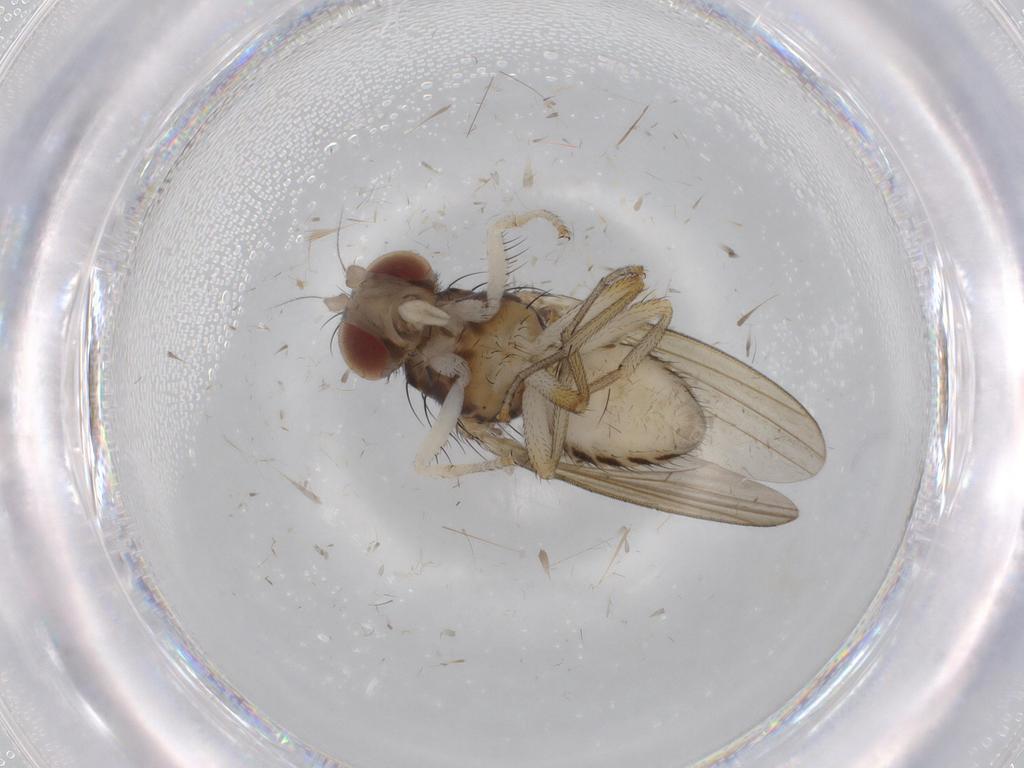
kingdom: Animalia
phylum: Arthropoda
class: Insecta
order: Diptera
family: Lauxaniidae
